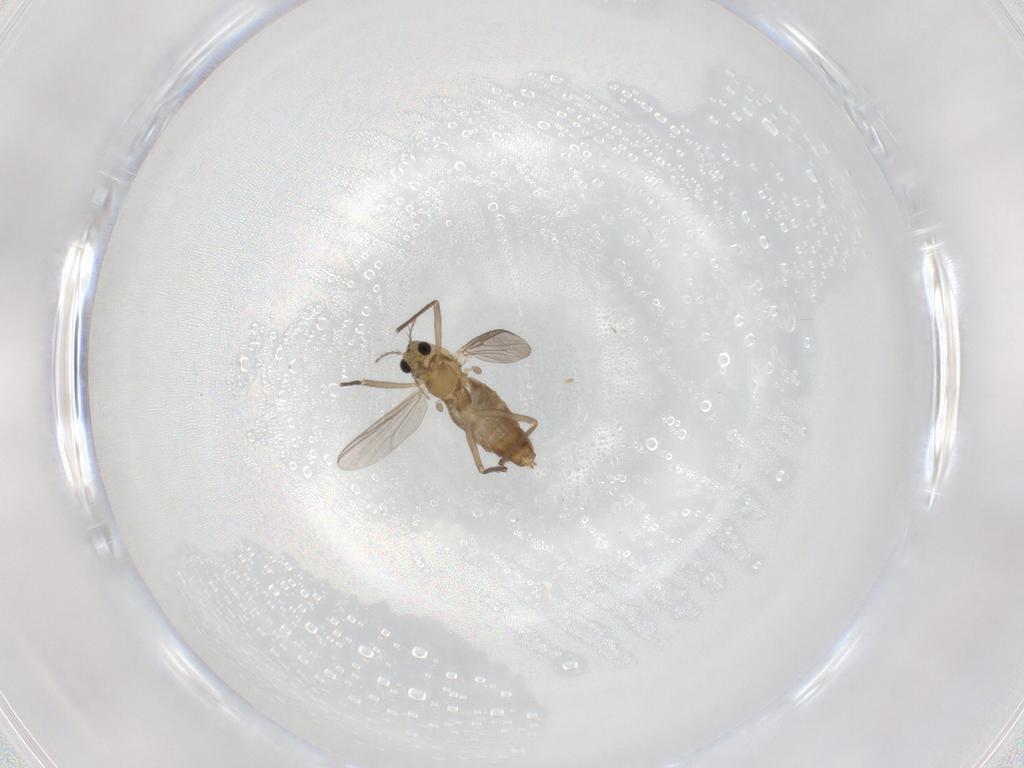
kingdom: Animalia
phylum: Arthropoda
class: Insecta
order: Diptera
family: Chironomidae
